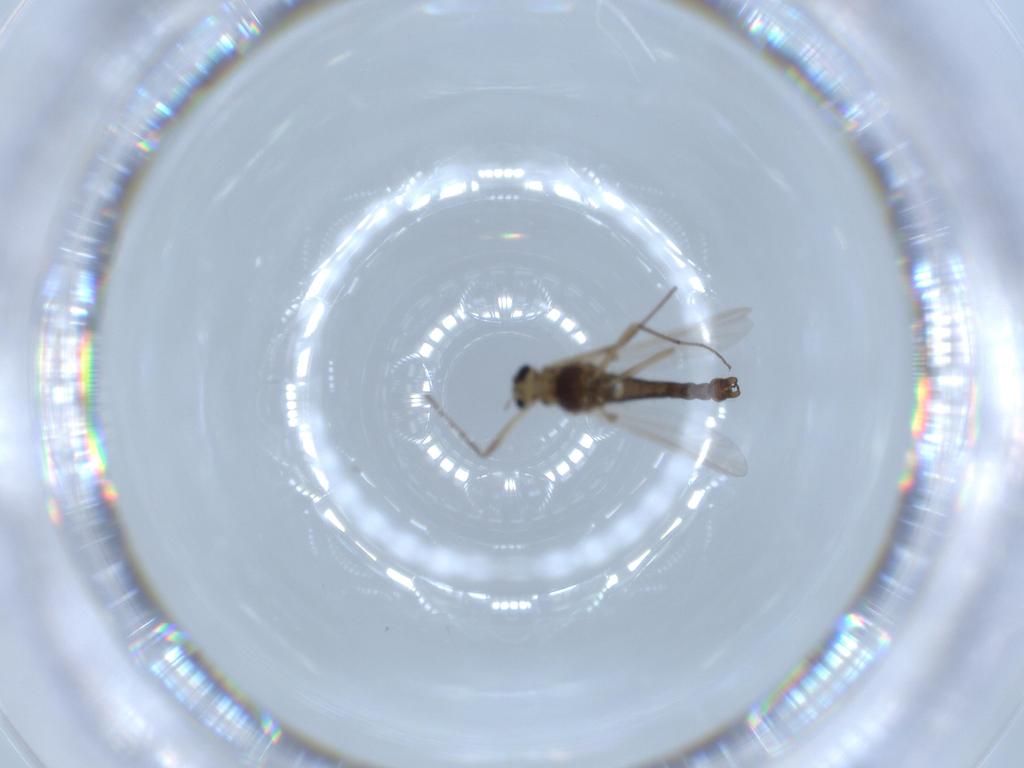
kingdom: Animalia
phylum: Arthropoda
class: Insecta
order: Diptera
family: Chironomidae
